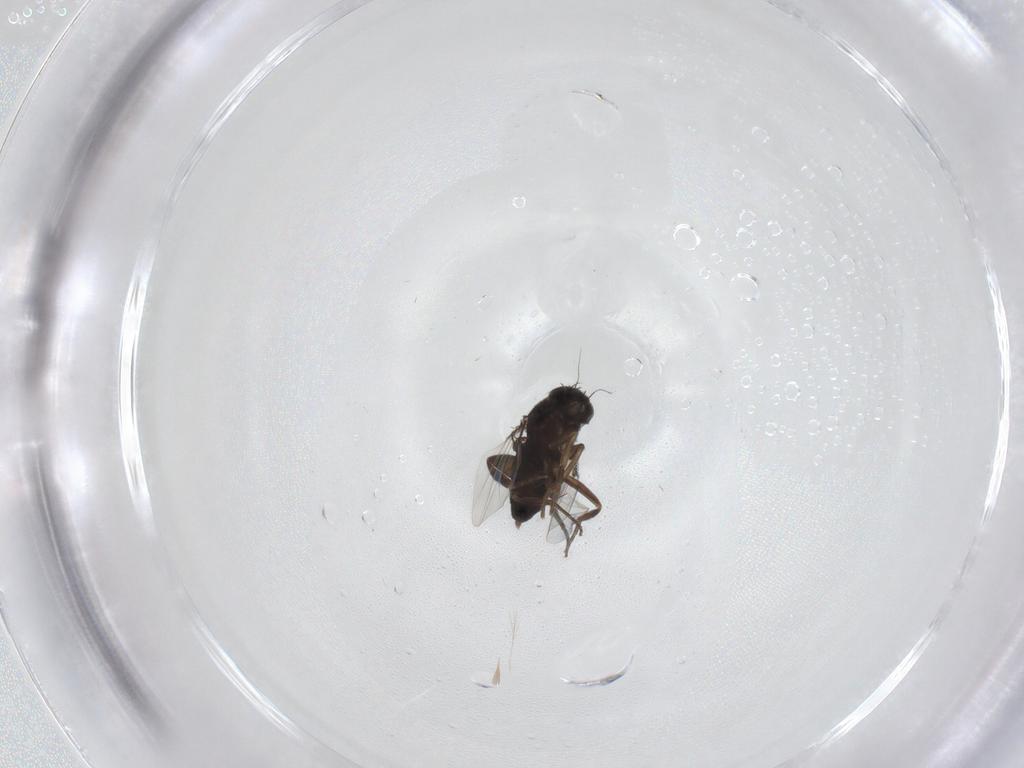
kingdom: Animalia
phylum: Arthropoda
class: Insecta
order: Diptera
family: Phoridae
